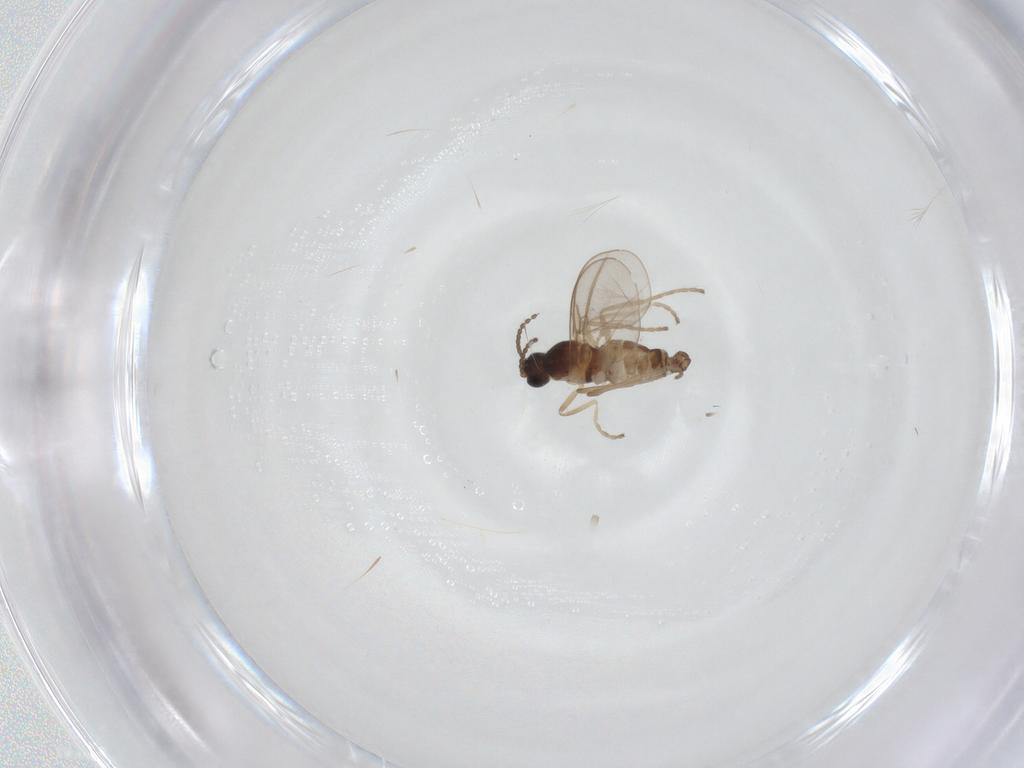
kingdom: Animalia
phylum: Arthropoda
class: Insecta
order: Diptera
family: Cecidomyiidae
